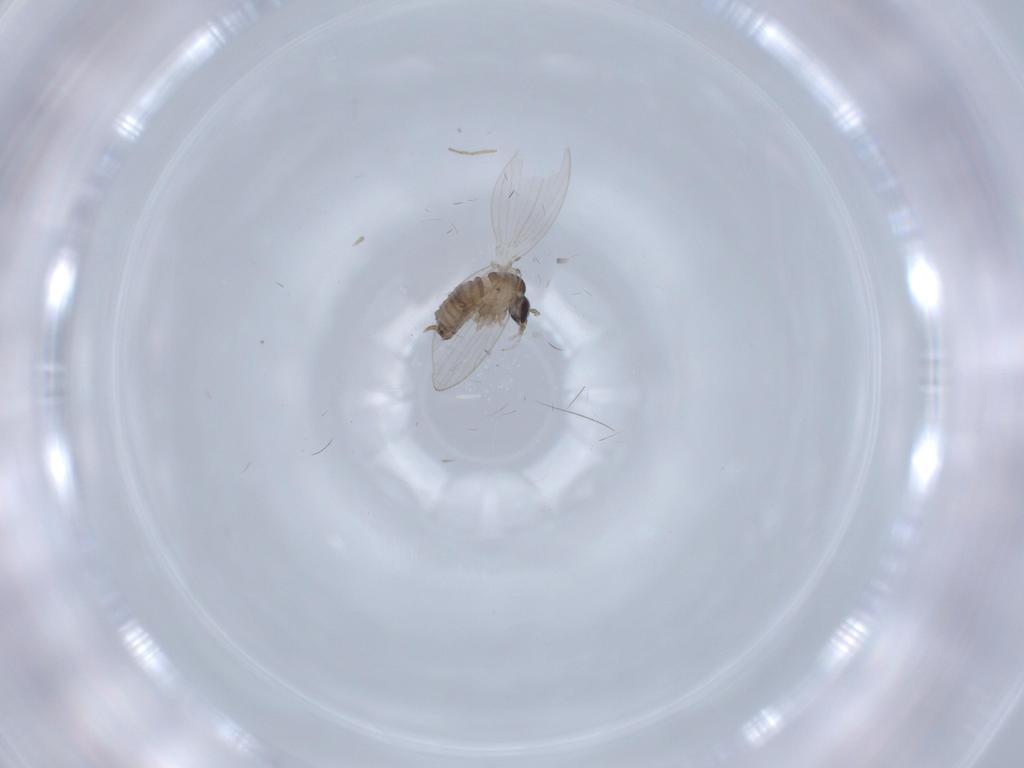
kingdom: Animalia
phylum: Arthropoda
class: Insecta
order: Diptera
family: Psychodidae
